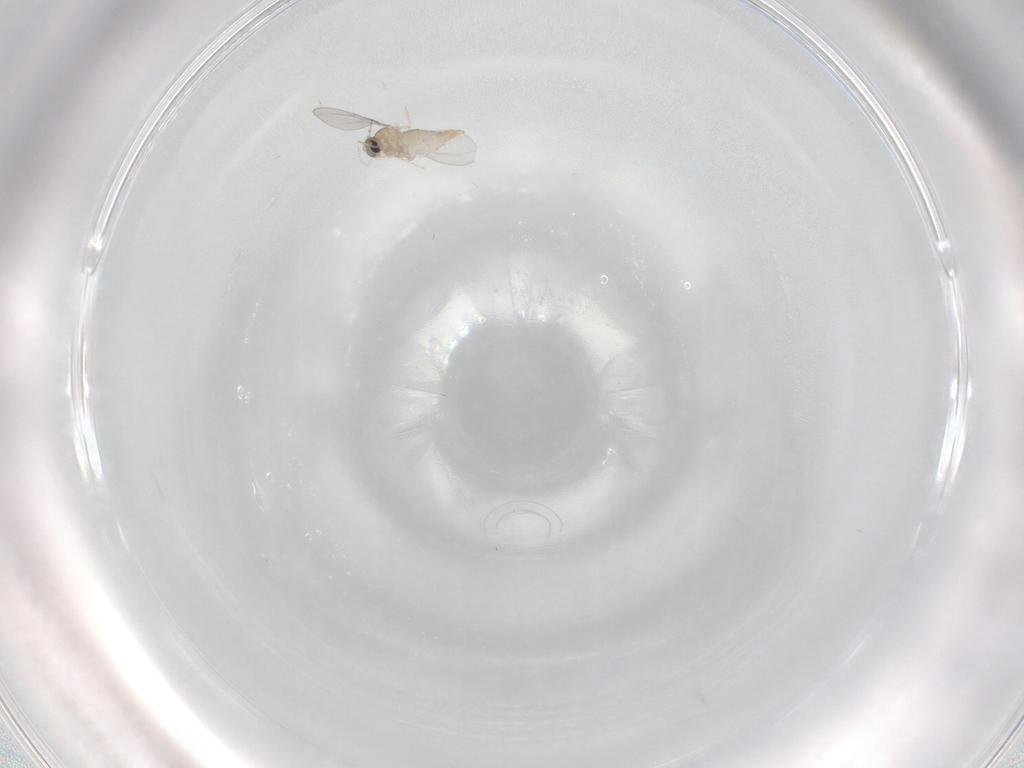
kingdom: Animalia
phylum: Arthropoda
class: Insecta
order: Diptera
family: Cecidomyiidae
